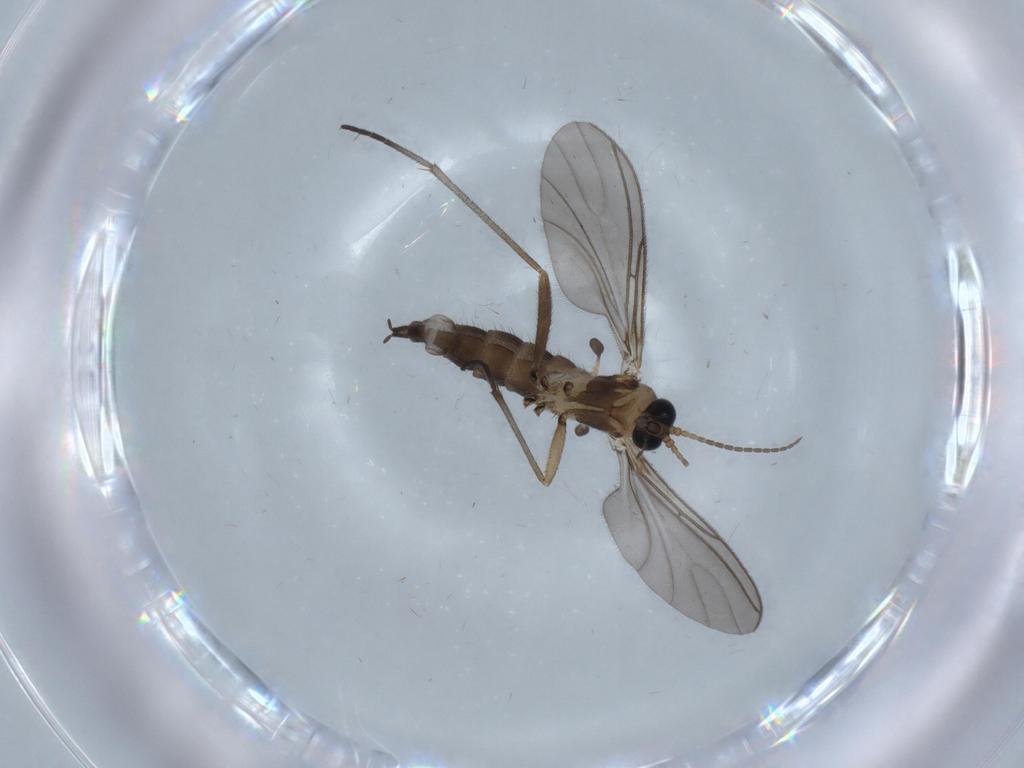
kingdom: Animalia
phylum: Arthropoda
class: Insecta
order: Diptera
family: Sciaridae
